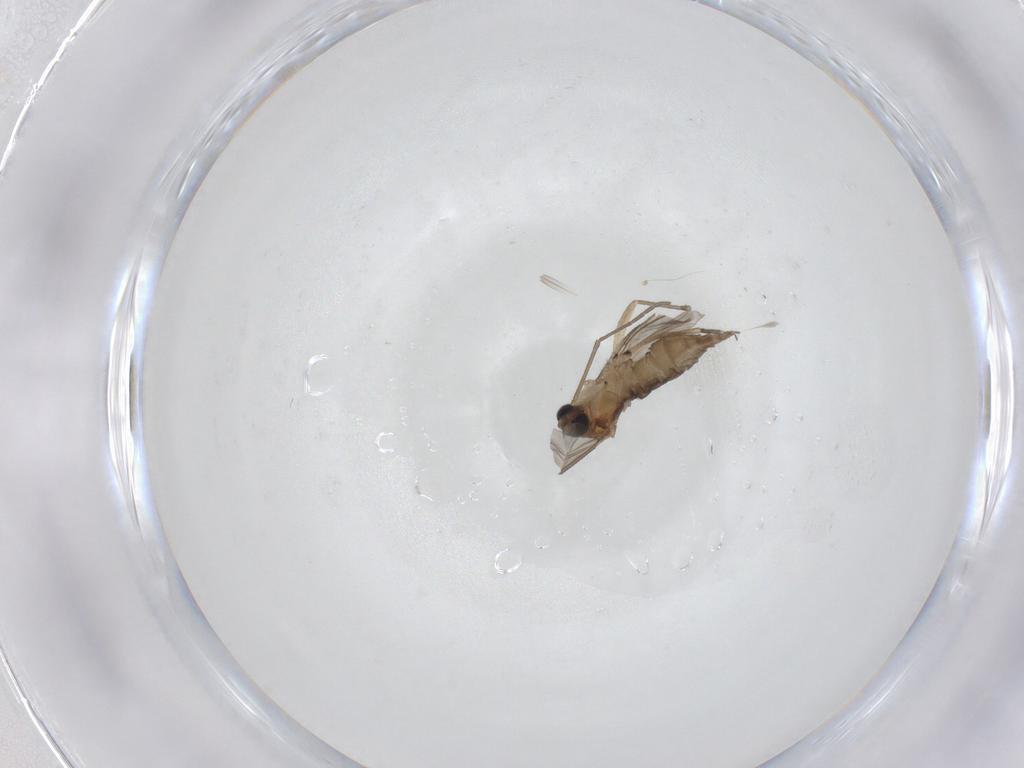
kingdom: Animalia
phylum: Arthropoda
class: Insecta
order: Diptera
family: Sciaridae
